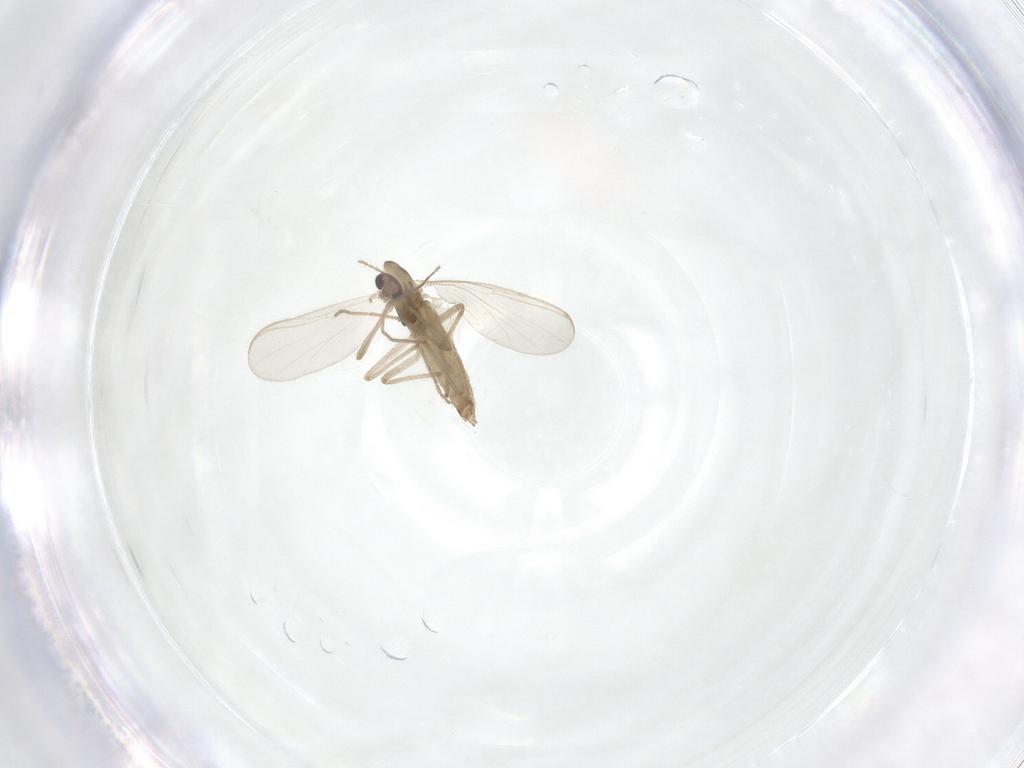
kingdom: Animalia
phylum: Arthropoda
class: Insecta
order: Diptera
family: Chironomidae
